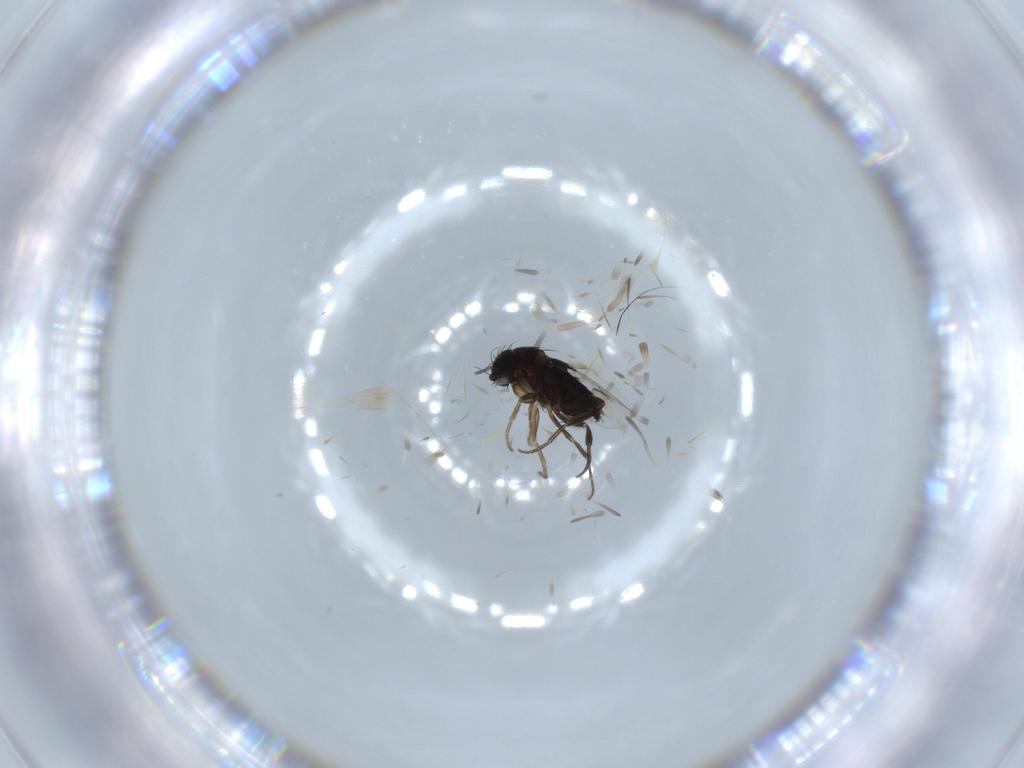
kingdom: Animalia
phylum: Arthropoda
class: Insecta
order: Diptera
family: Phoridae
